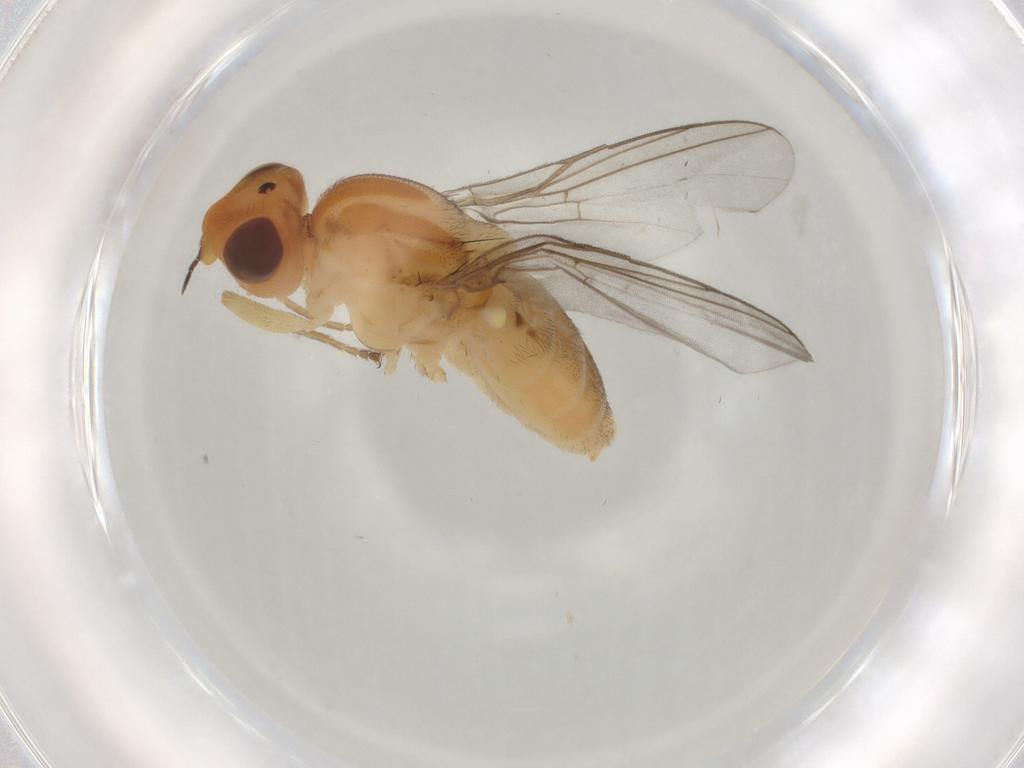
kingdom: Animalia
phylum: Arthropoda
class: Insecta
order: Diptera
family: Chloropidae
